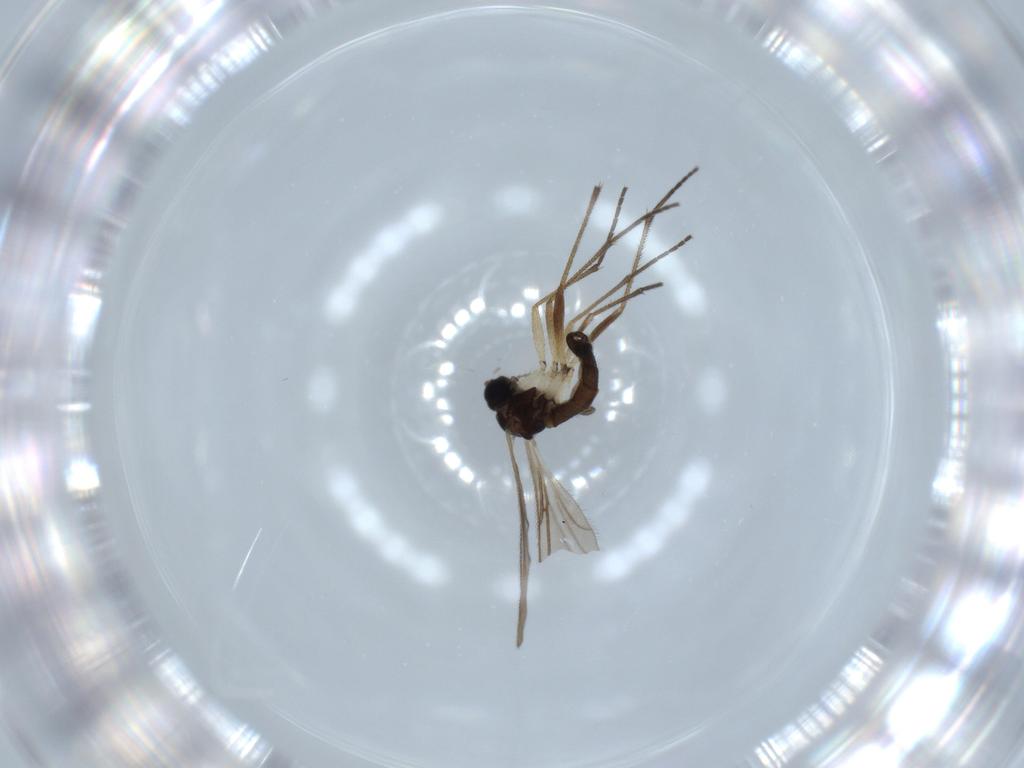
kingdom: Animalia
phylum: Arthropoda
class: Insecta
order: Diptera
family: Sciaridae
